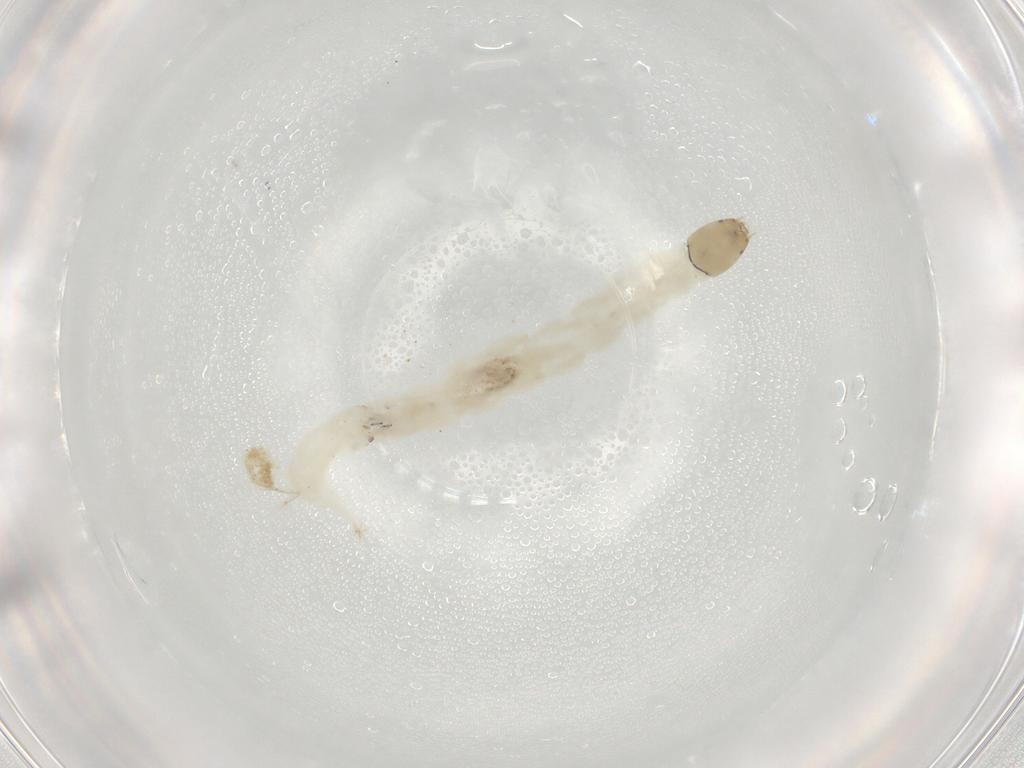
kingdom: Animalia
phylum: Arthropoda
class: Insecta
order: Diptera
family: Chironomidae
